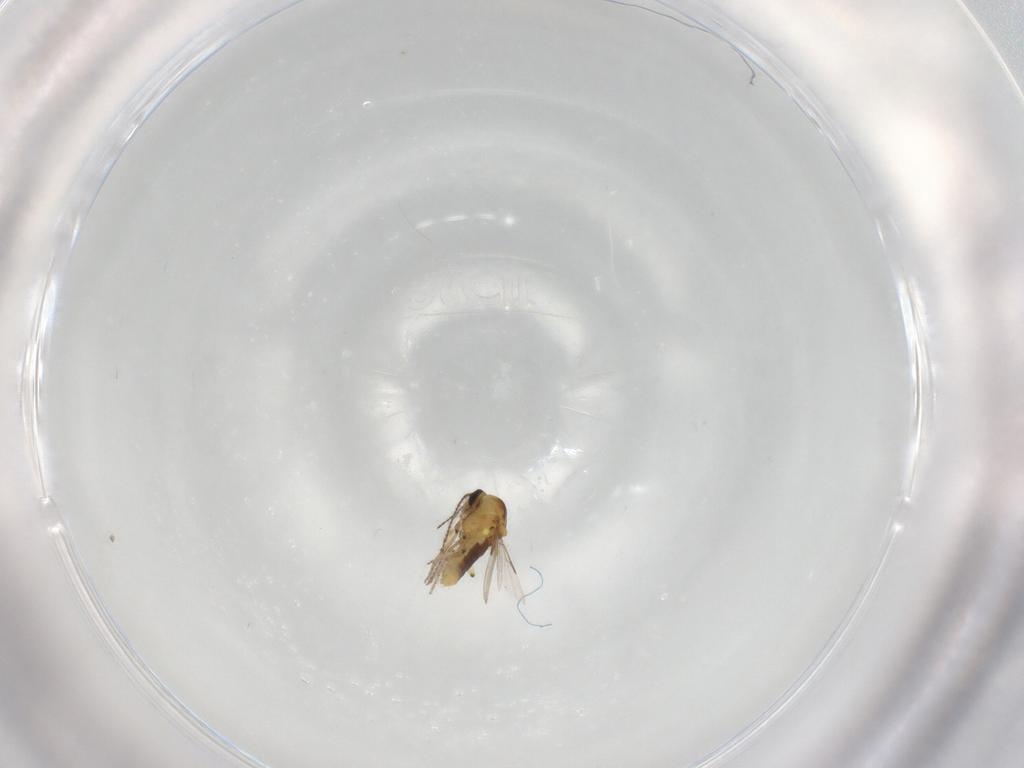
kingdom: Animalia
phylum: Arthropoda
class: Insecta
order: Diptera
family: Ceratopogonidae
